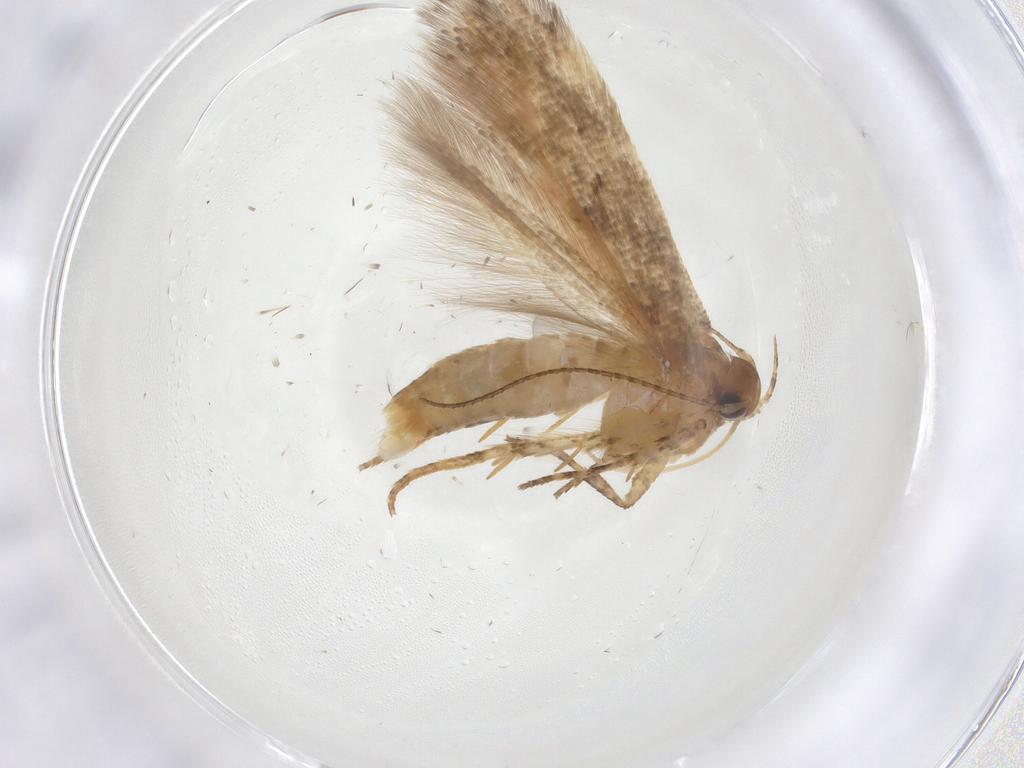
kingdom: Animalia
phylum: Arthropoda
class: Insecta
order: Lepidoptera
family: Gelechiidae
